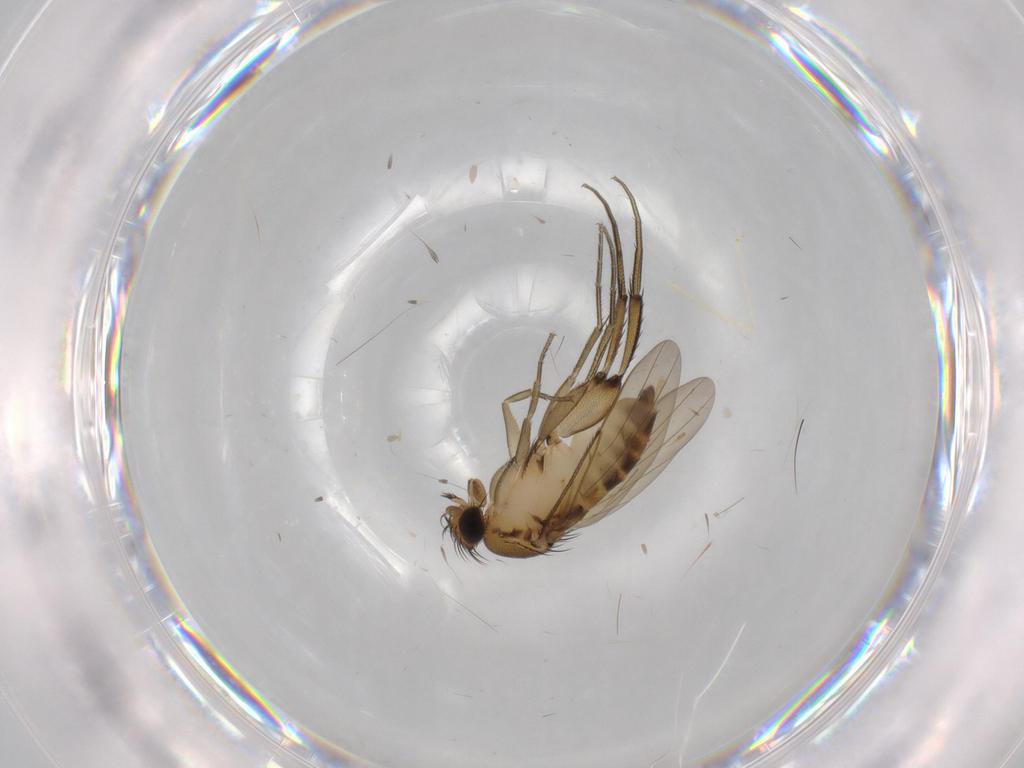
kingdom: Animalia
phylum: Arthropoda
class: Insecta
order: Diptera
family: Phoridae
